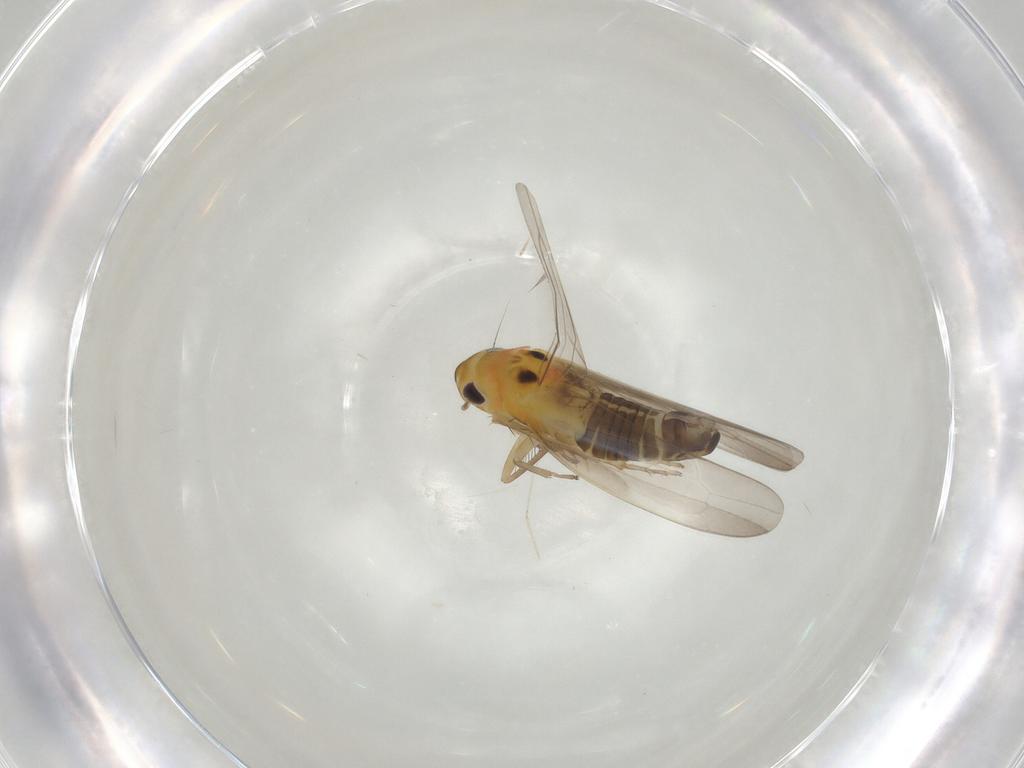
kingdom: Animalia
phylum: Arthropoda
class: Insecta
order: Hemiptera
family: Cicadellidae
